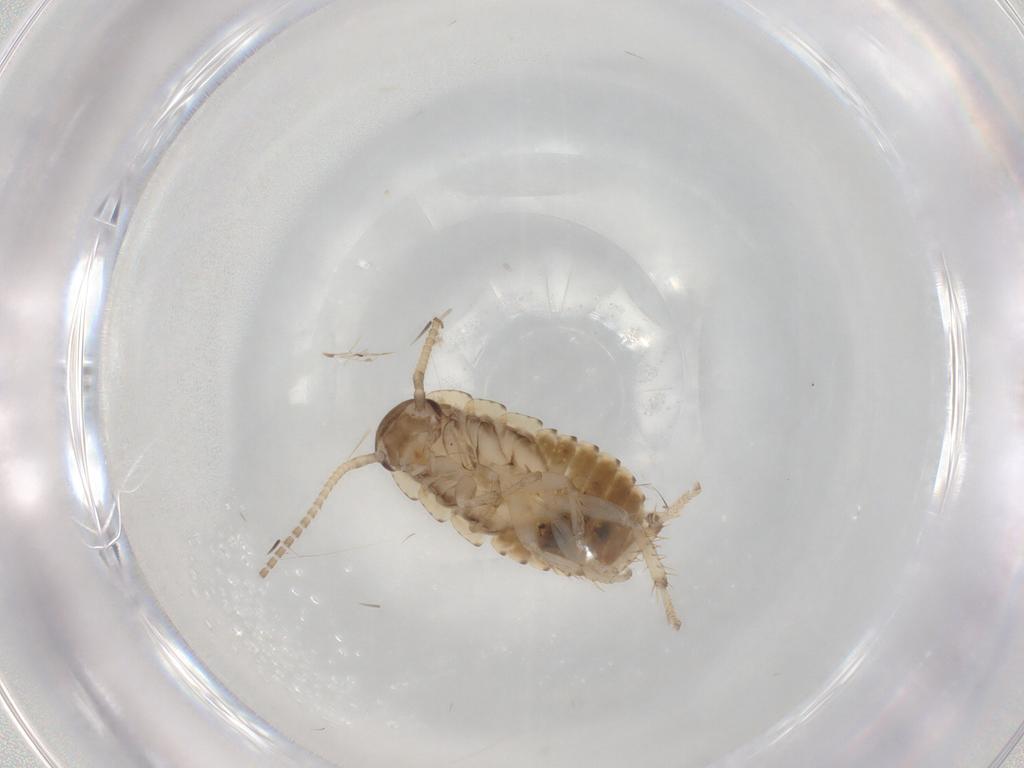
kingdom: Animalia
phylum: Arthropoda
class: Insecta
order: Blattodea
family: Blaberidae
